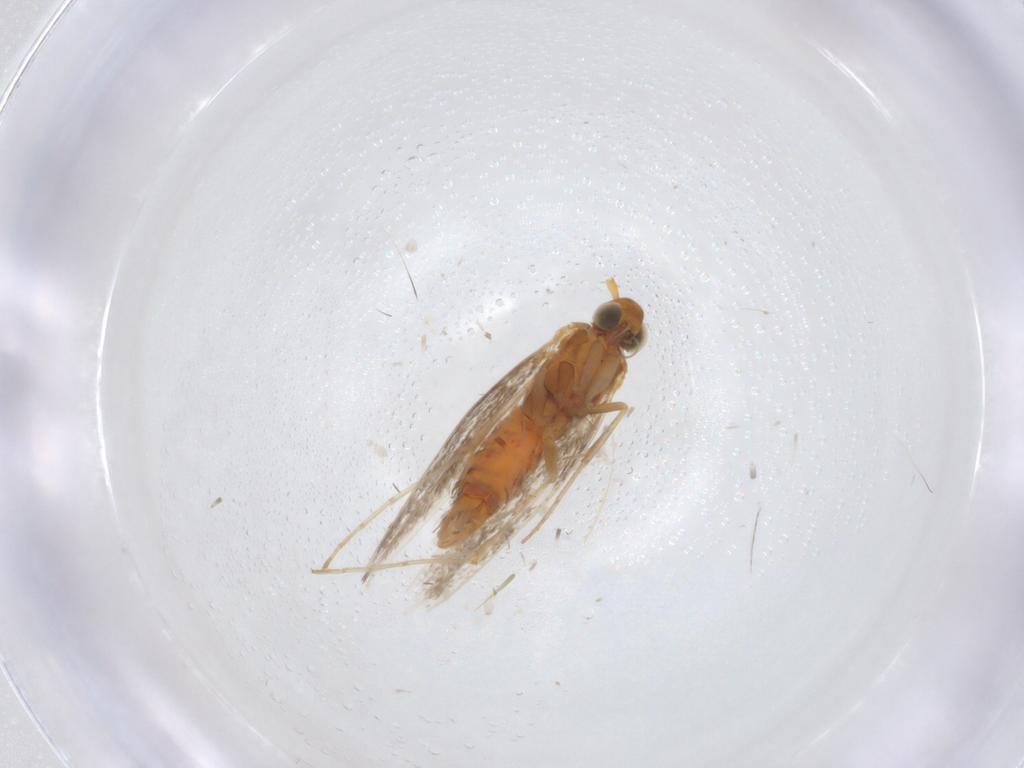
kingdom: Animalia
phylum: Arthropoda
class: Insecta
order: Lepidoptera
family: Gracillariidae
